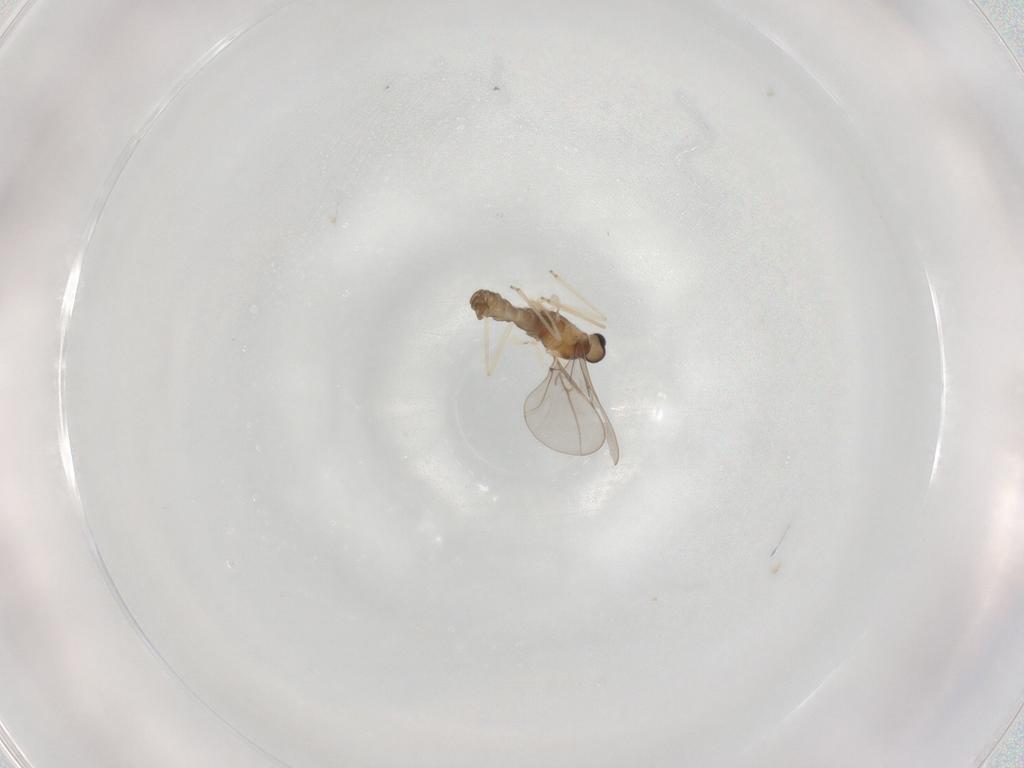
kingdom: Animalia
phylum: Arthropoda
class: Insecta
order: Diptera
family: Cecidomyiidae
